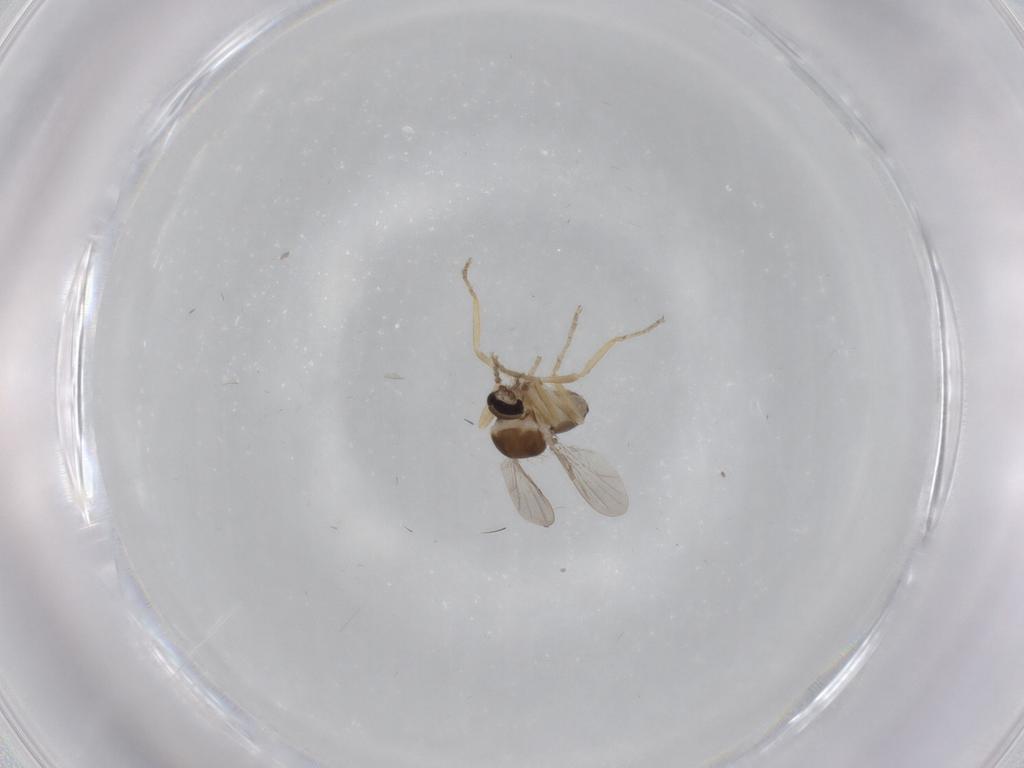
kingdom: Animalia
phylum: Arthropoda
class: Insecta
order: Diptera
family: Ceratopogonidae
